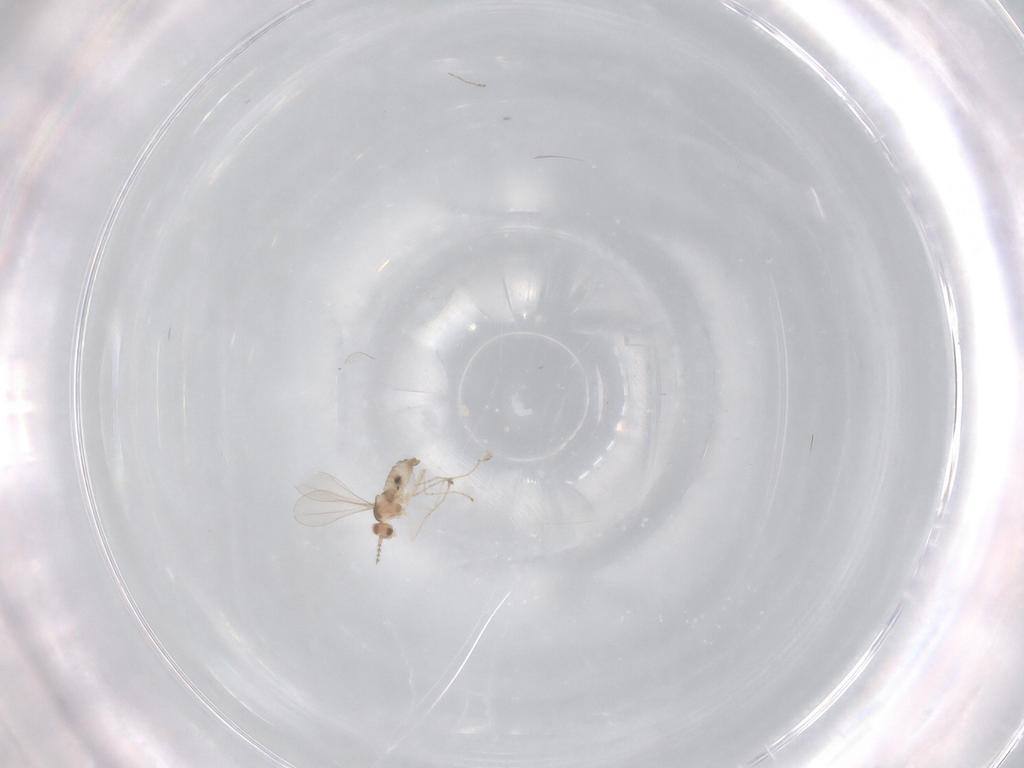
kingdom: Animalia
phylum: Arthropoda
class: Insecta
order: Diptera
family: Cecidomyiidae
